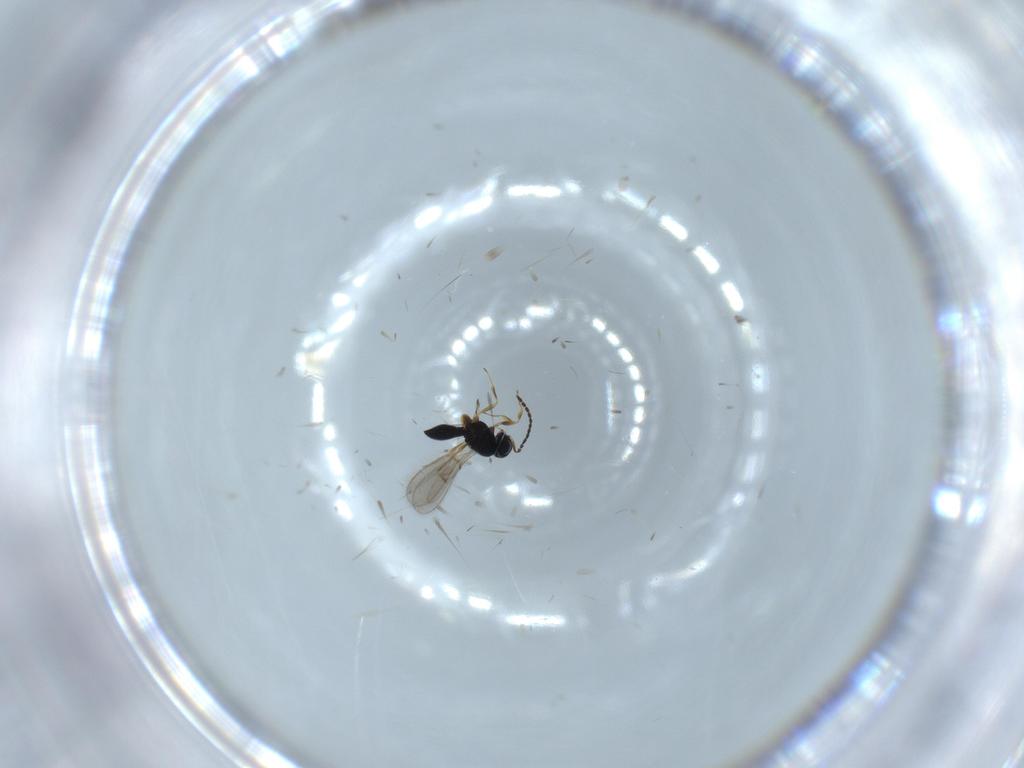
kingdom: Animalia
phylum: Arthropoda
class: Insecta
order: Hymenoptera
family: Scelionidae
